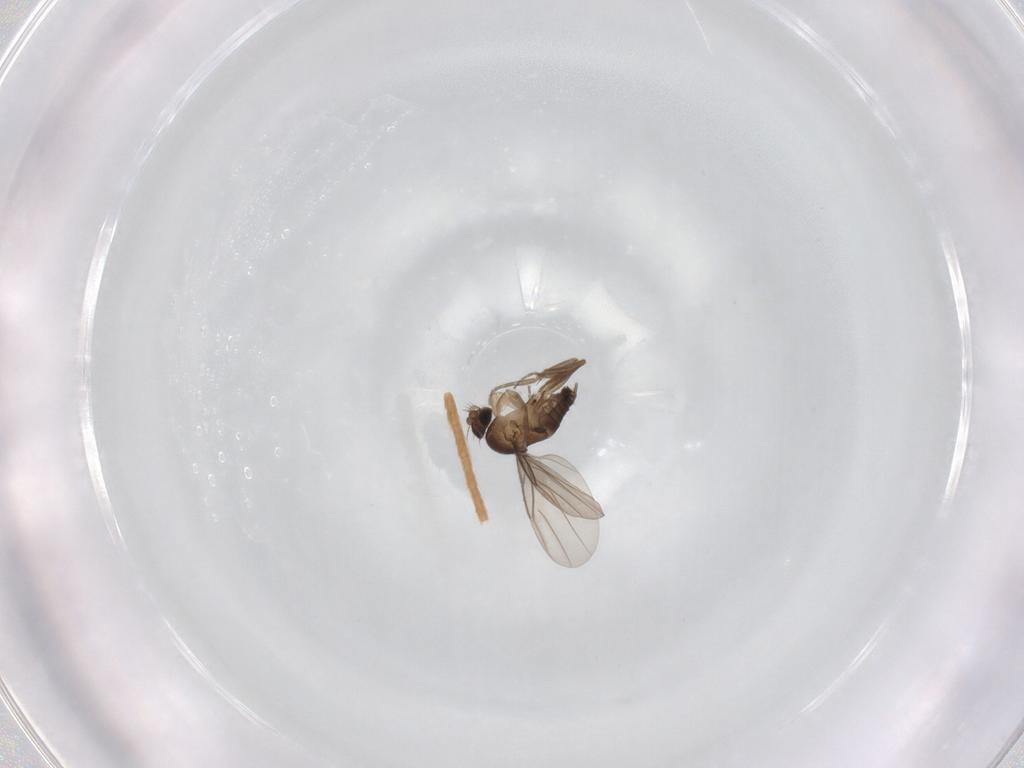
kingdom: Animalia
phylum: Arthropoda
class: Insecta
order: Diptera
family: Phoridae
